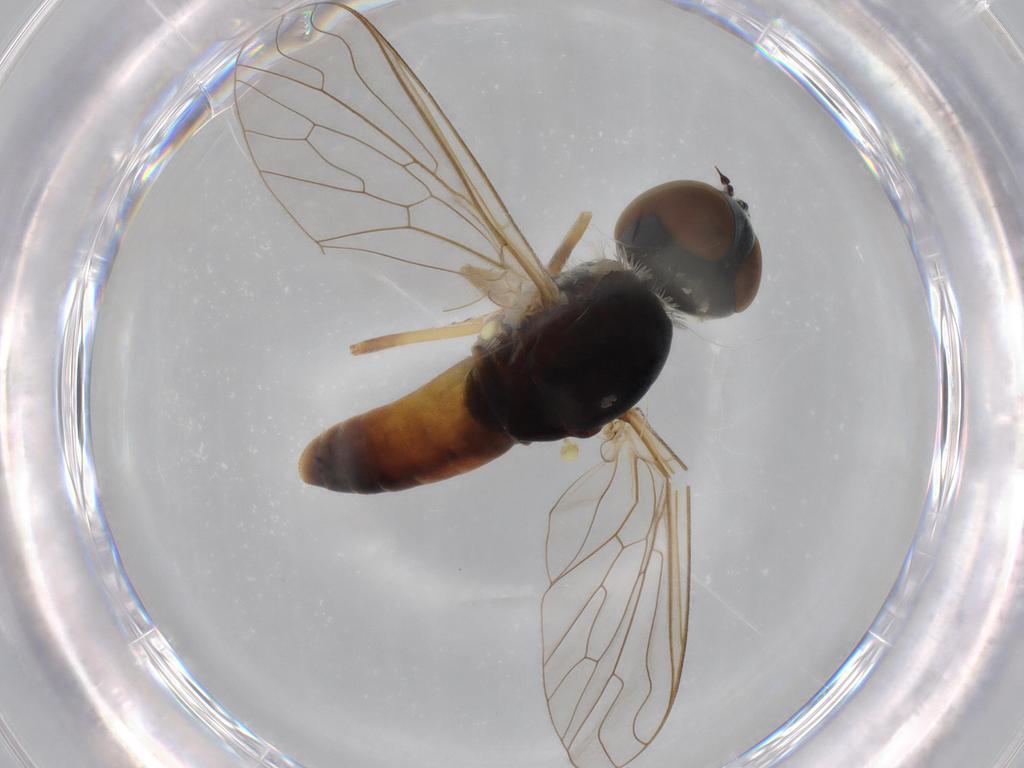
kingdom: Animalia
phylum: Arthropoda
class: Insecta
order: Diptera
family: Bombyliidae
